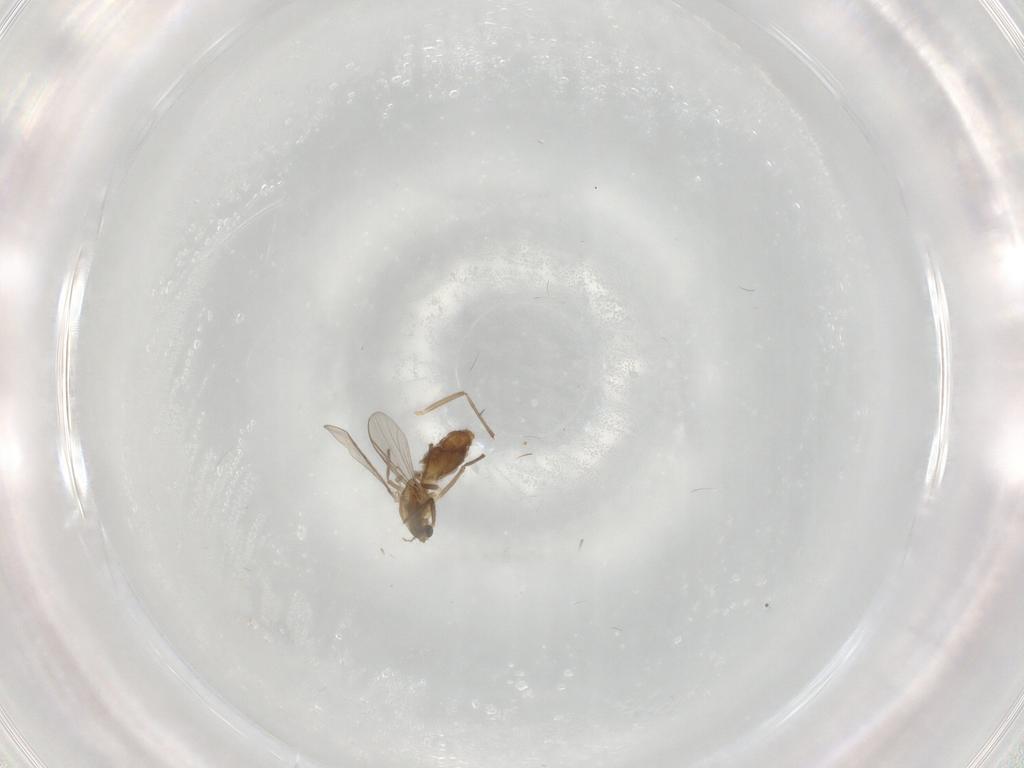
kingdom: Animalia
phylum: Arthropoda
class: Insecta
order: Diptera
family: Chironomidae
